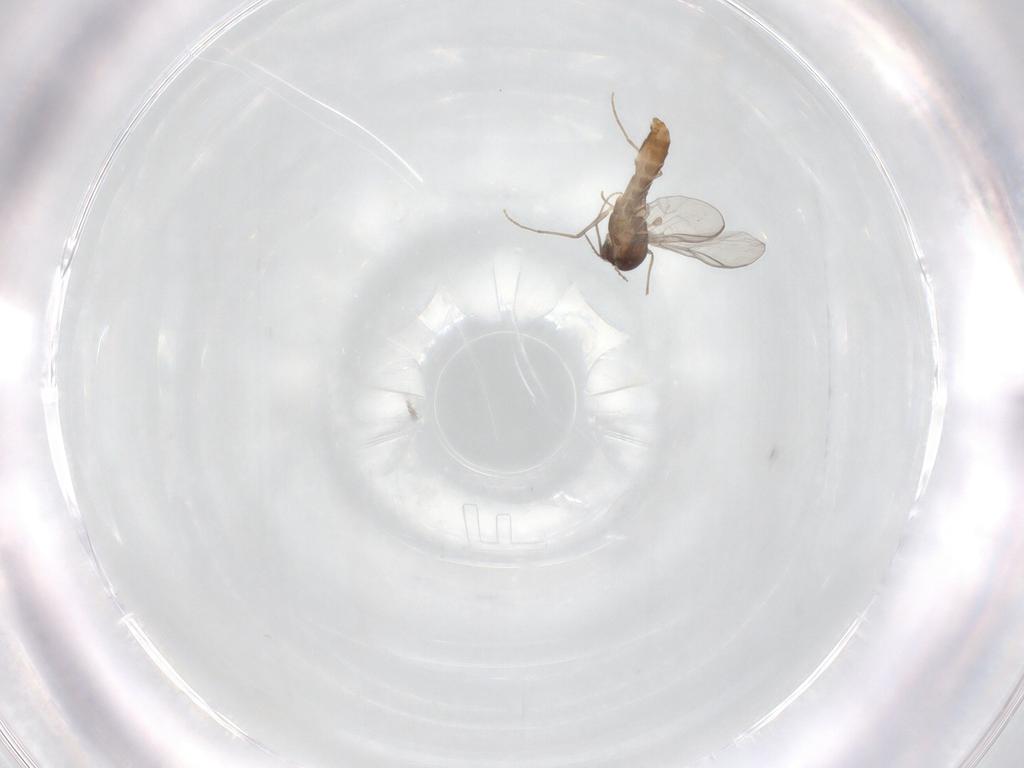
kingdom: Animalia
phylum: Arthropoda
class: Insecta
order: Diptera
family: Chironomidae
